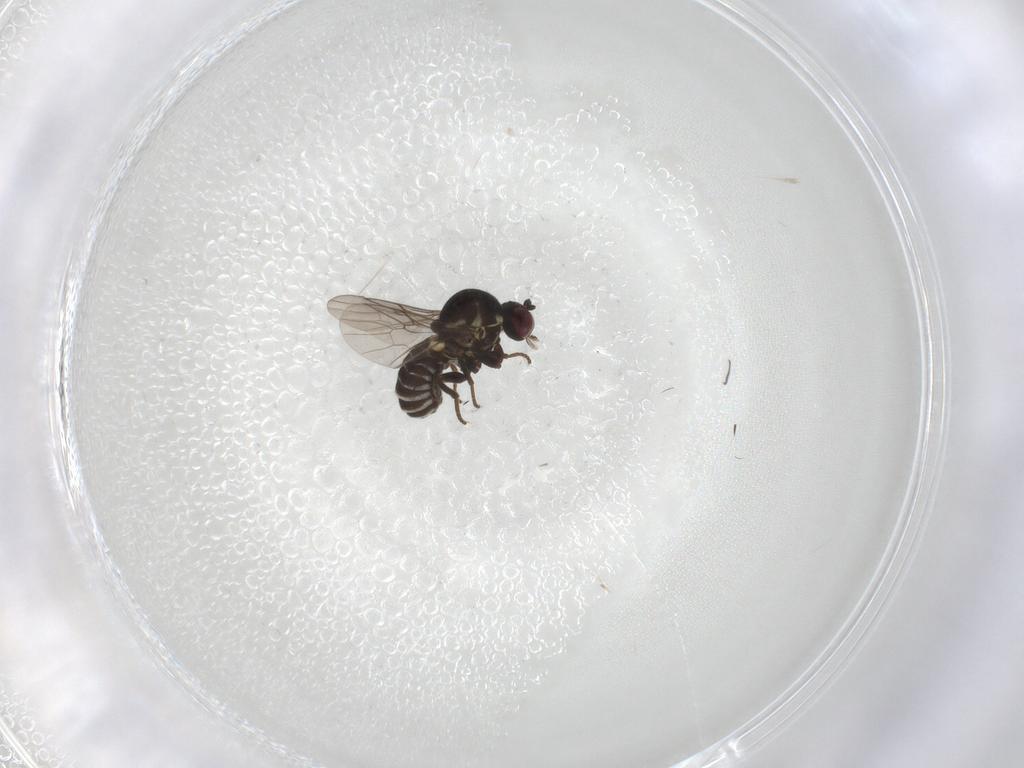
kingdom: Animalia
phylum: Arthropoda
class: Insecta
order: Diptera
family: Bombyliidae
